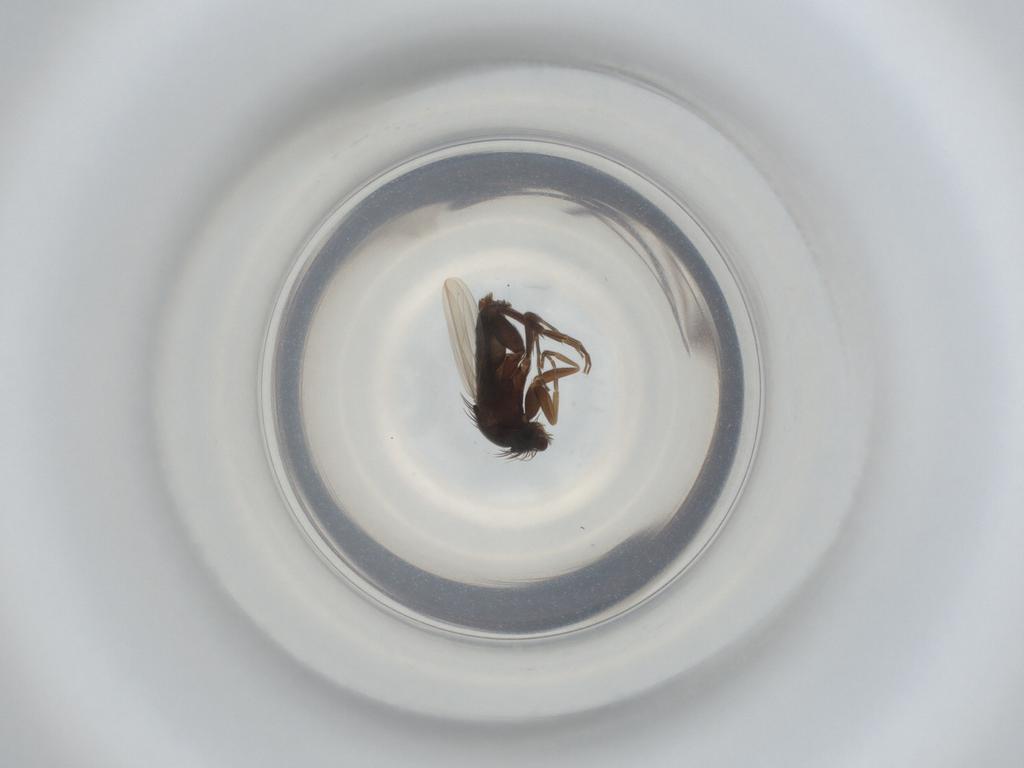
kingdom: Animalia
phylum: Arthropoda
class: Insecta
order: Diptera
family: Phoridae
